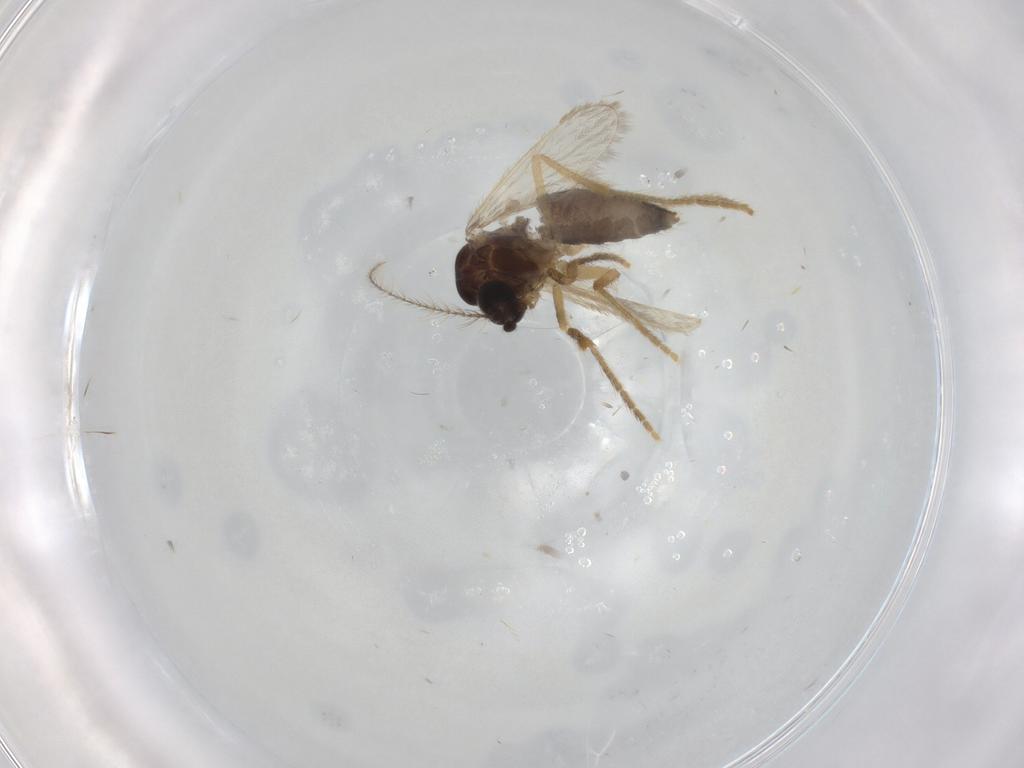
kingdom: Animalia
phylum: Arthropoda
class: Insecta
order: Diptera
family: Corethrellidae
